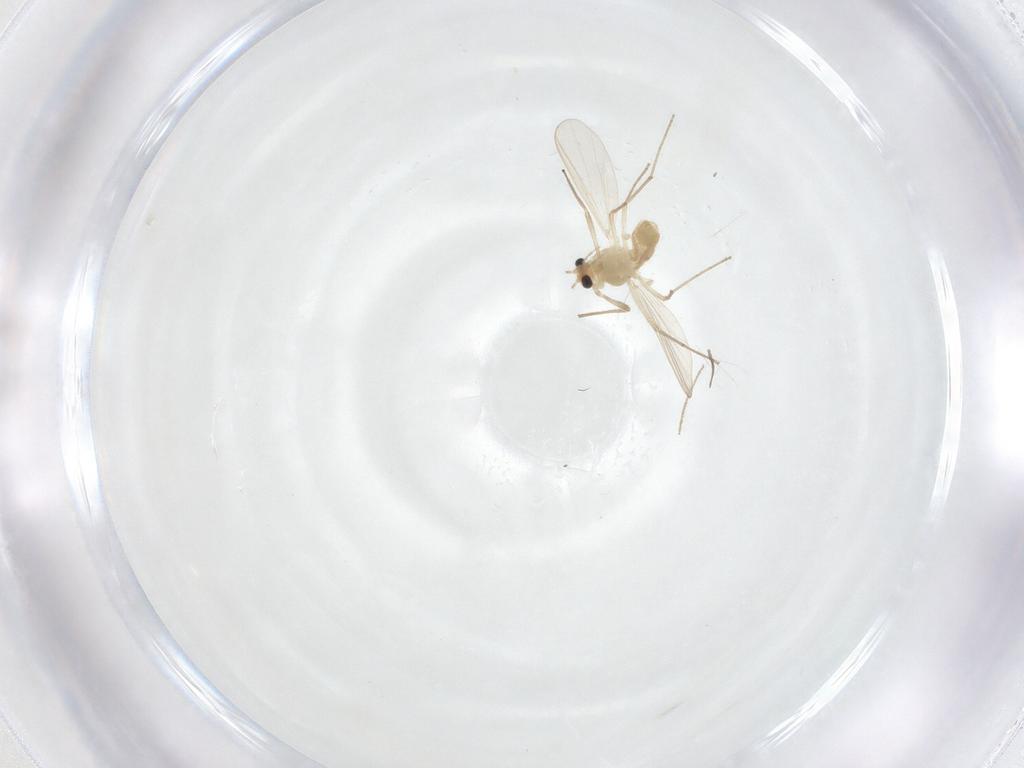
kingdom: Animalia
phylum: Arthropoda
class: Insecta
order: Diptera
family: Chironomidae
